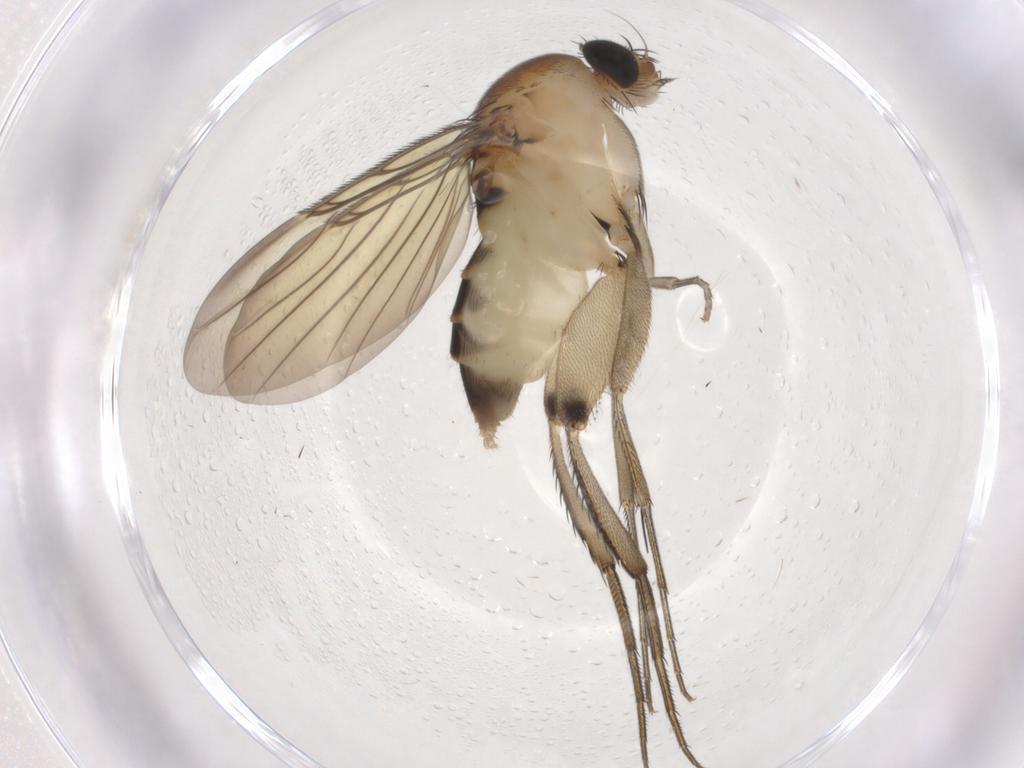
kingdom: Animalia
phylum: Arthropoda
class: Insecta
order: Diptera
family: Phoridae
